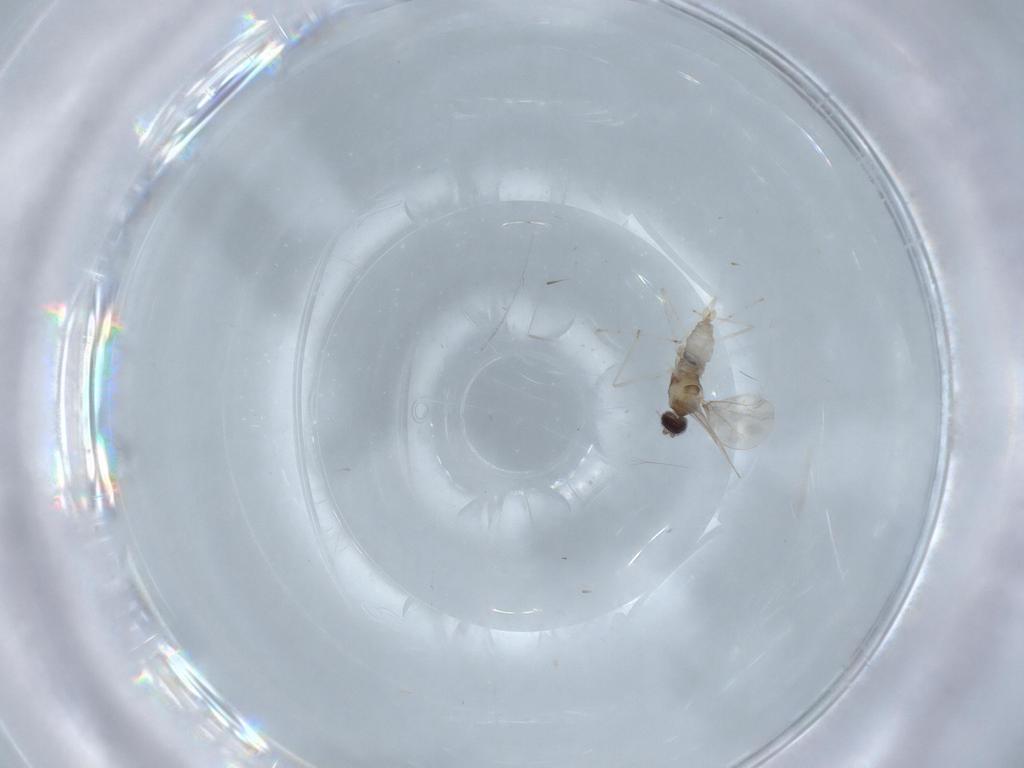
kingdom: Animalia
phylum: Arthropoda
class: Insecta
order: Diptera
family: Cecidomyiidae
